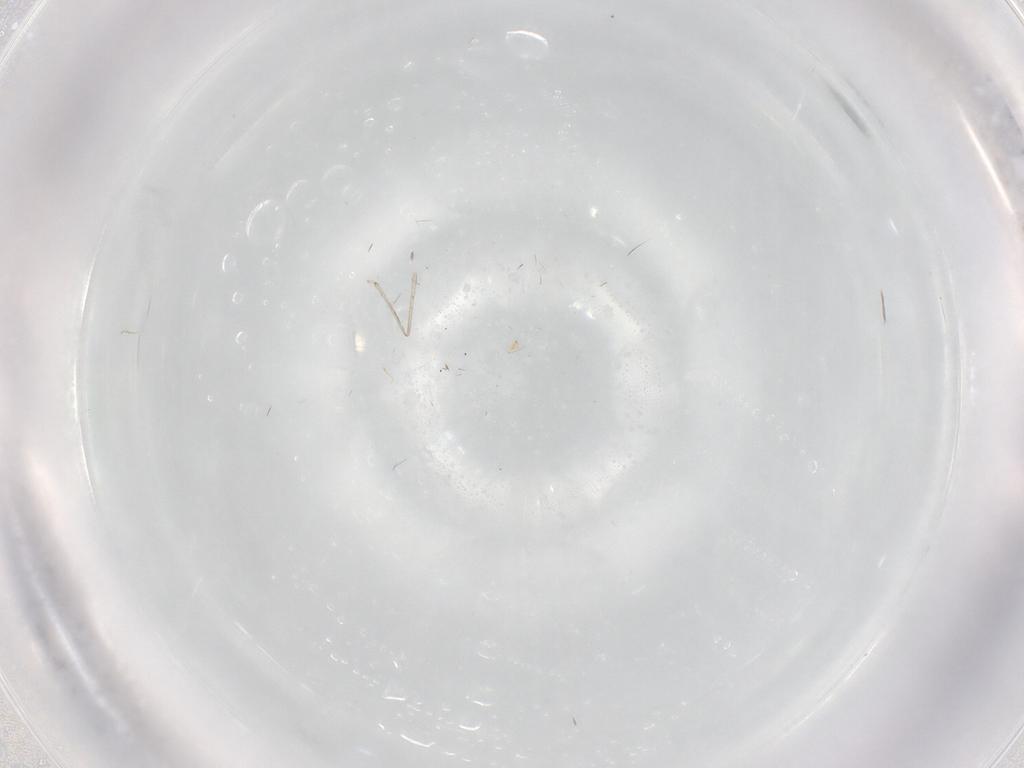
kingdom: Animalia
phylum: Arthropoda
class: Insecta
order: Diptera
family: Cecidomyiidae
